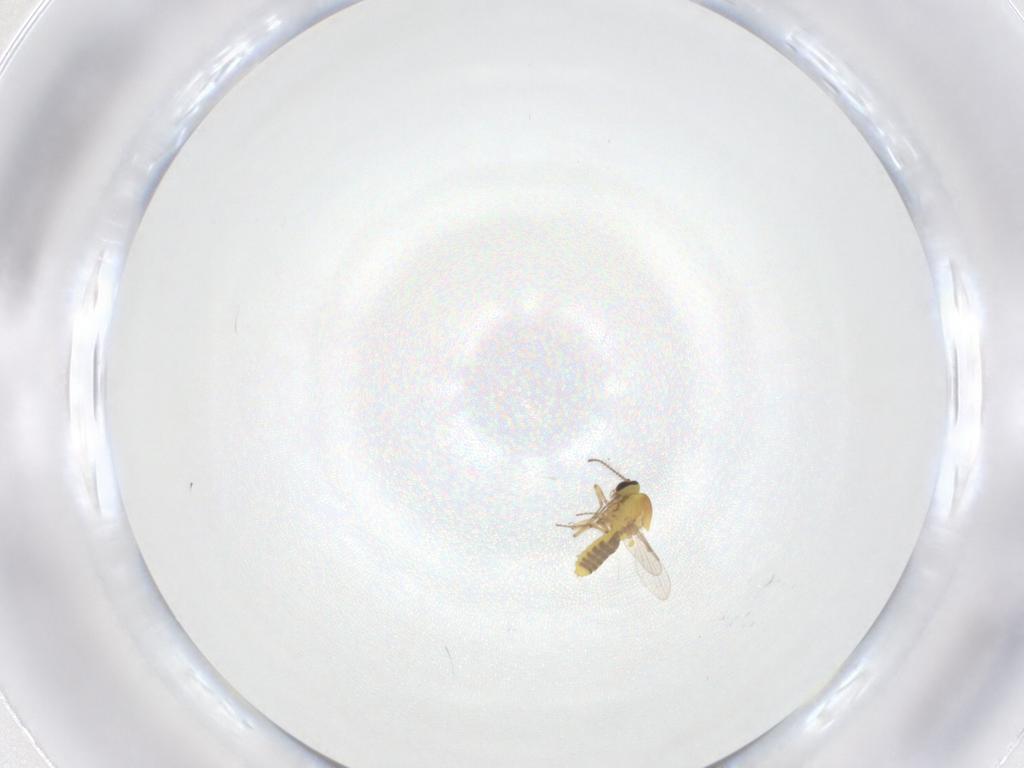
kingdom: Animalia
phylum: Arthropoda
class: Insecta
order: Diptera
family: Ceratopogonidae
